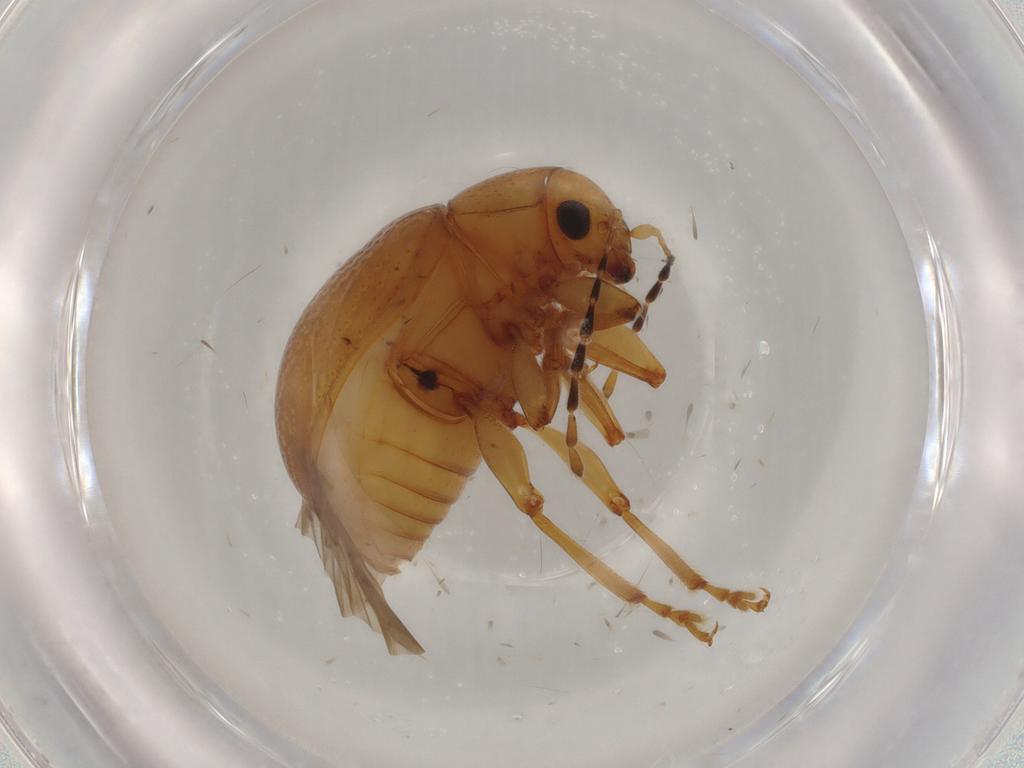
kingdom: Animalia
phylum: Arthropoda
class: Insecta
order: Coleoptera
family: Chrysomelidae
